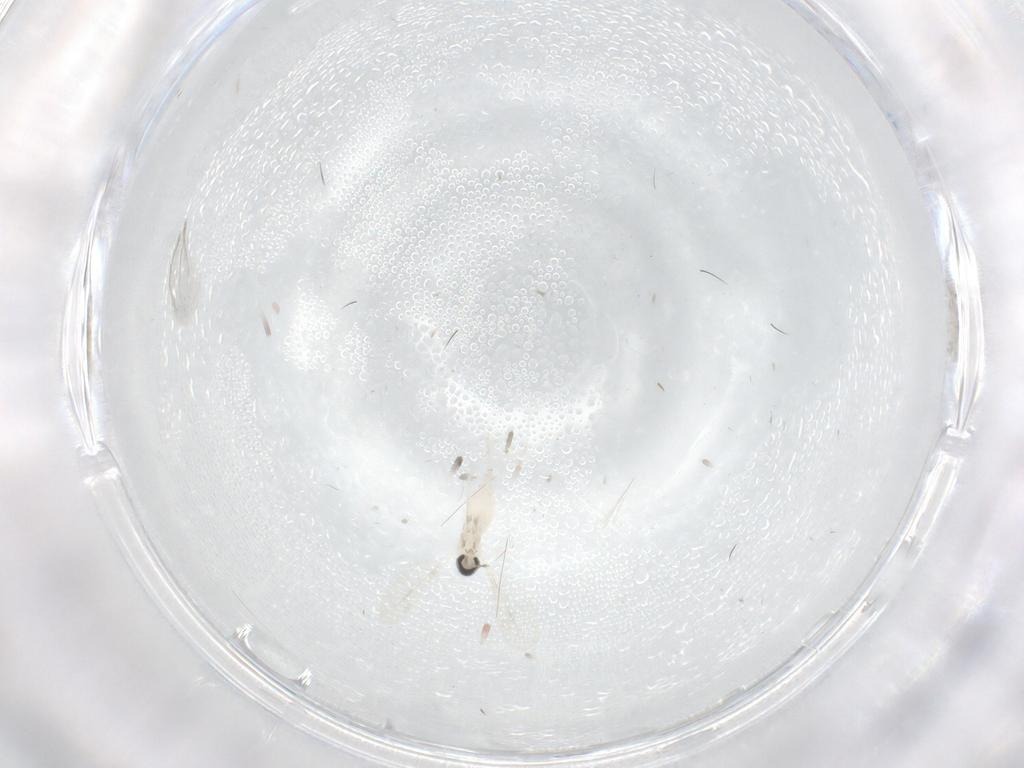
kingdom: Animalia
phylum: Arthropoda
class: Insecta
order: Diptera
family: Cecidomyiidae
